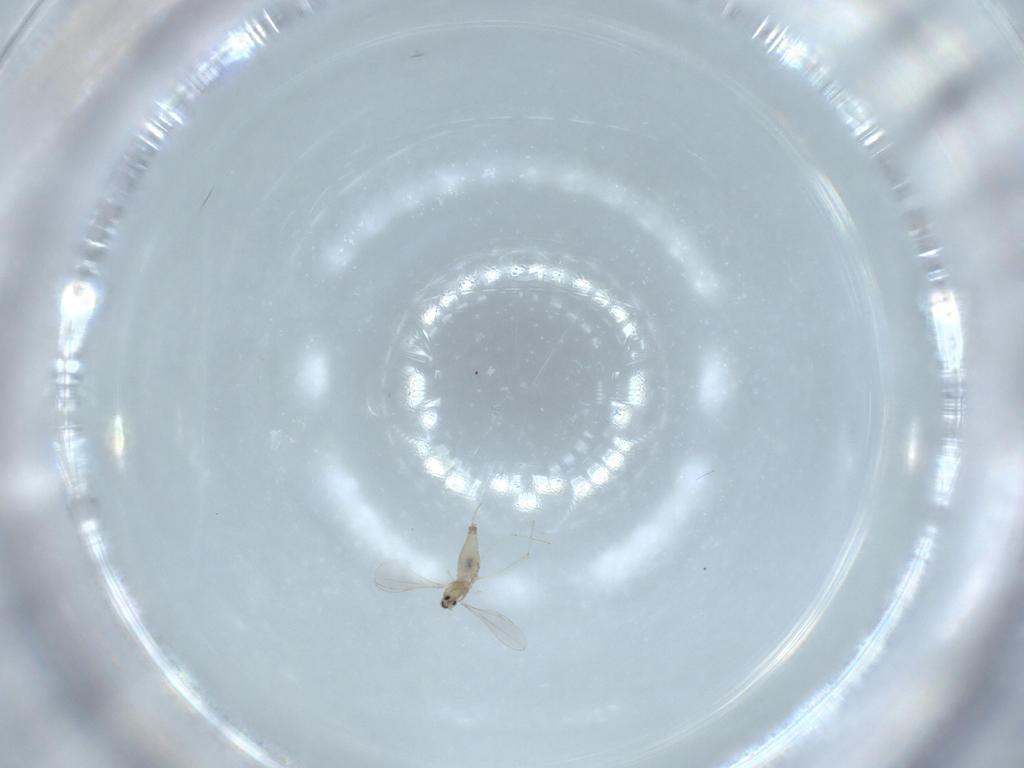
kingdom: Animalia
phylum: Arthropoda
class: Insecta
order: Diptera
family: Cecidomyiidae
